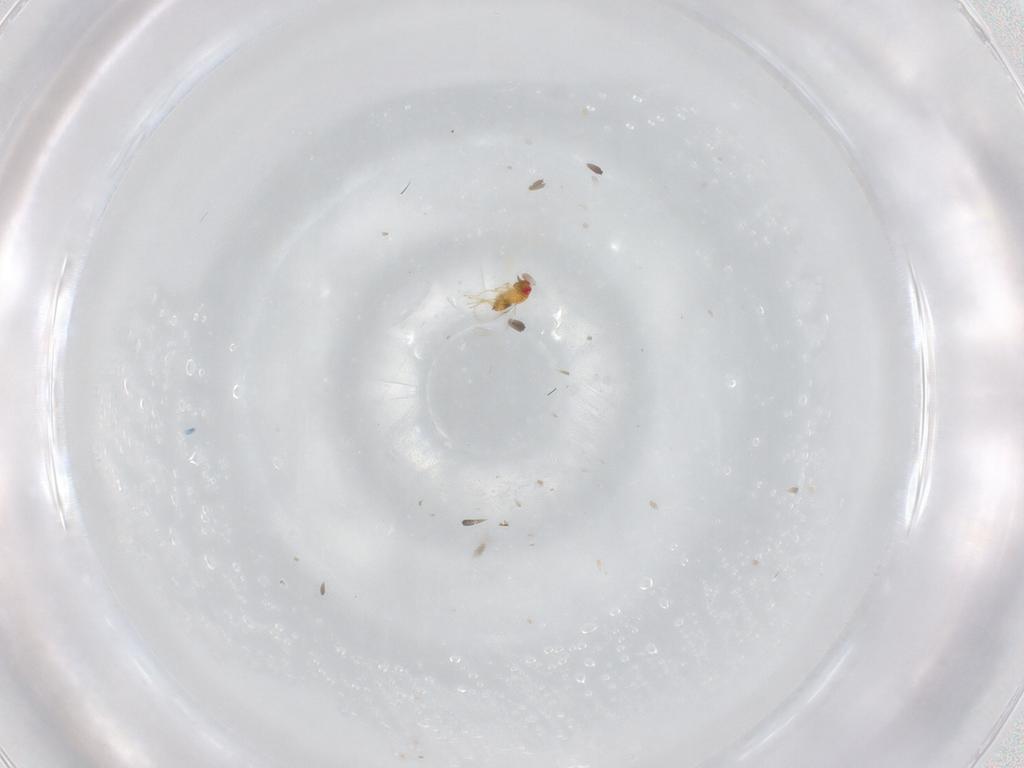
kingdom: Animalia
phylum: Arthropoda
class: Insecta
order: Hymenoptera
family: Trichogrammatidae
